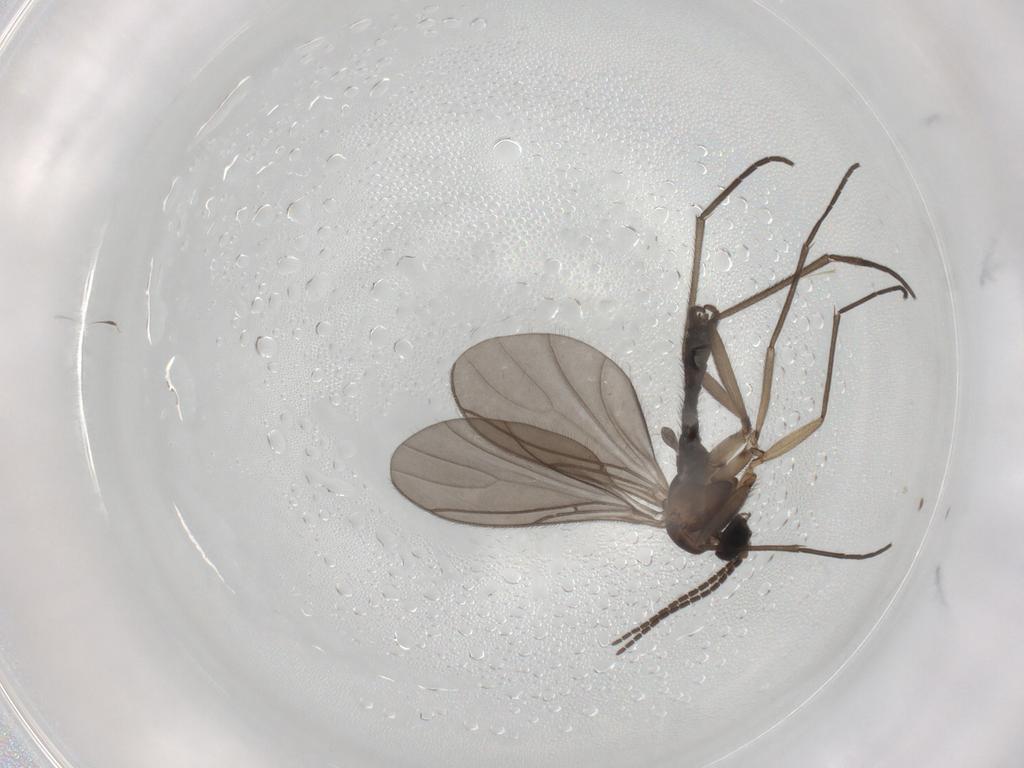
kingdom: Animalia
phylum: Arthropoda
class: Insecta
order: Diptera
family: Sciaridae
